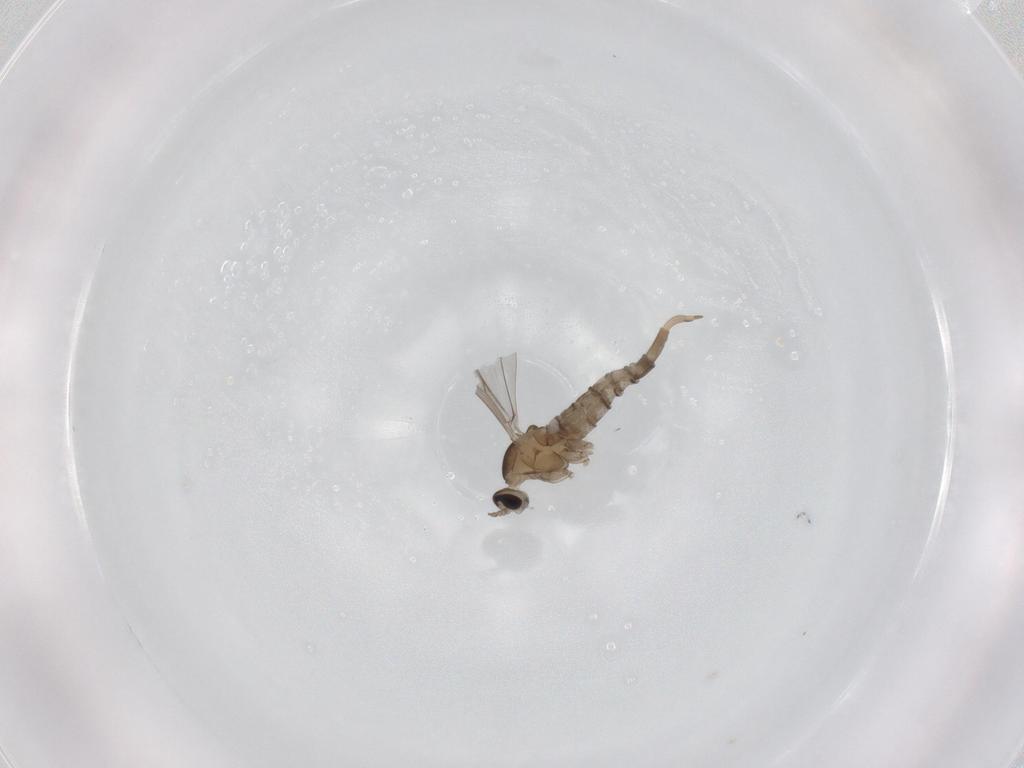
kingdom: Animalia
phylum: Arthropoda
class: Insecta
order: Diptera
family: Cecidomyiidae
